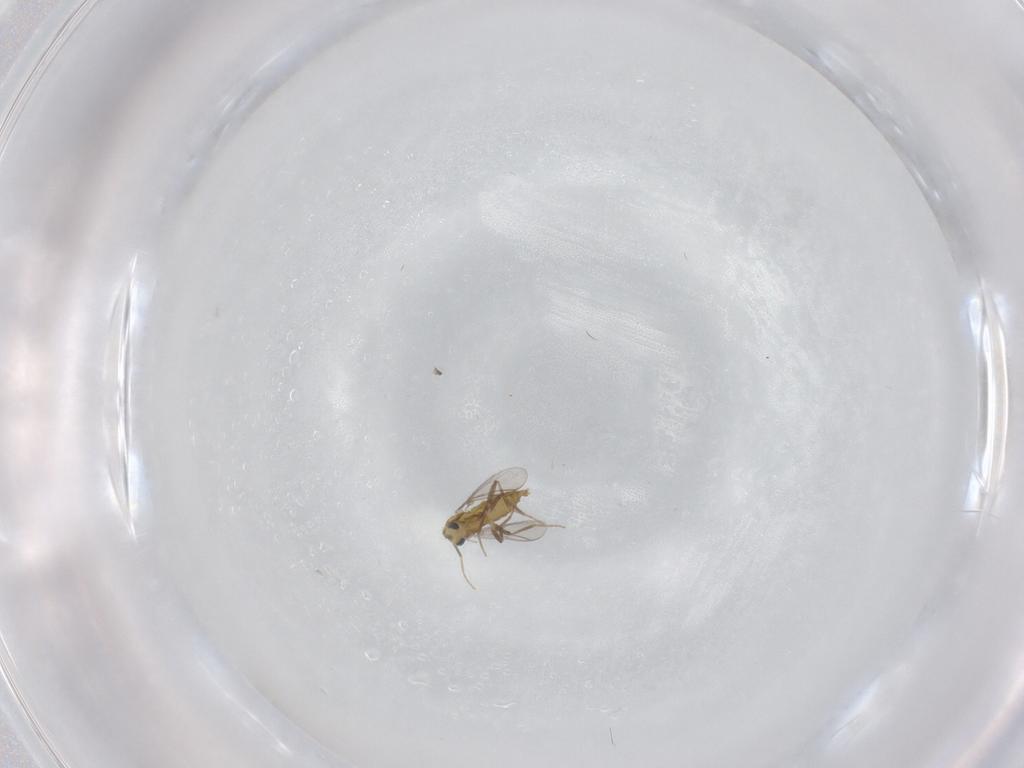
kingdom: Animalia
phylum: Arthropoda
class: Insecta
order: Diptera
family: Chironomidae
